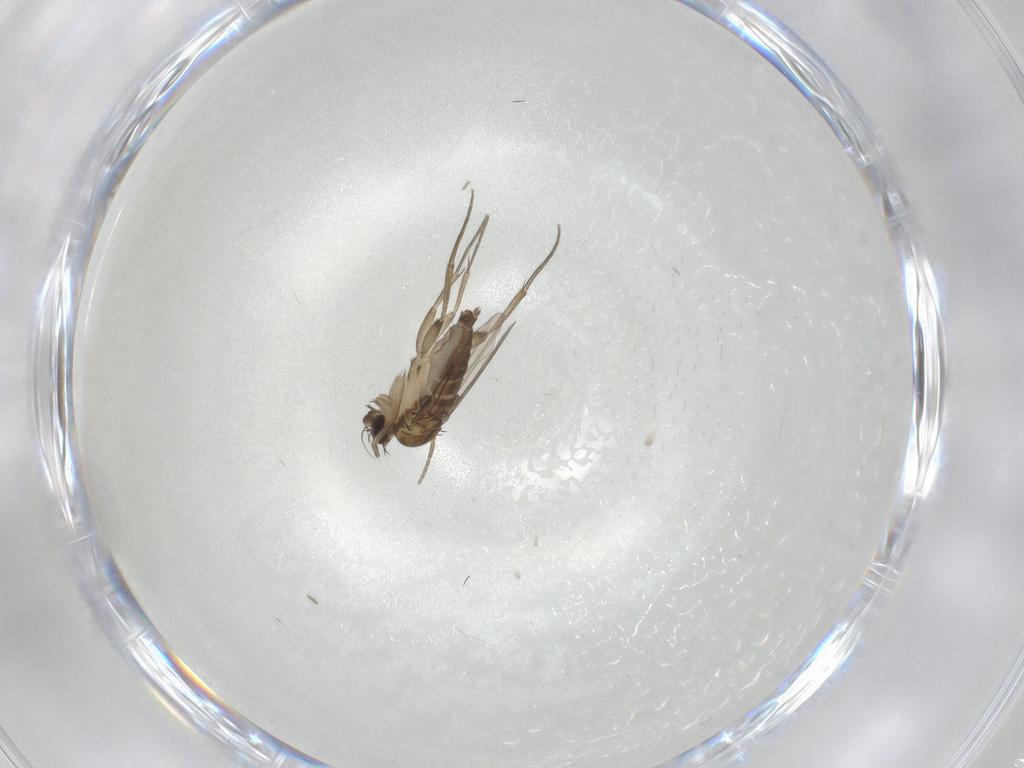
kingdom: Animalia
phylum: Arthropoda
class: Insecta
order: Diptera
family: Phoridae
